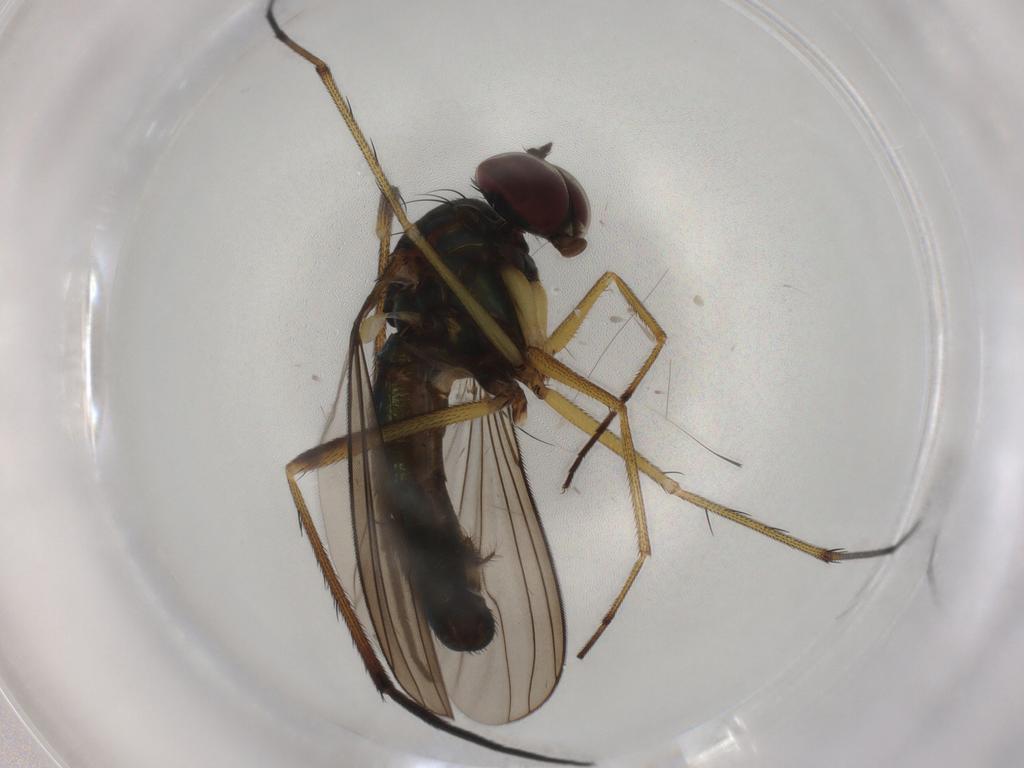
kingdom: Animalia
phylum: Arthropoda
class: Insecta
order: Diptera
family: Dolichopodidae
